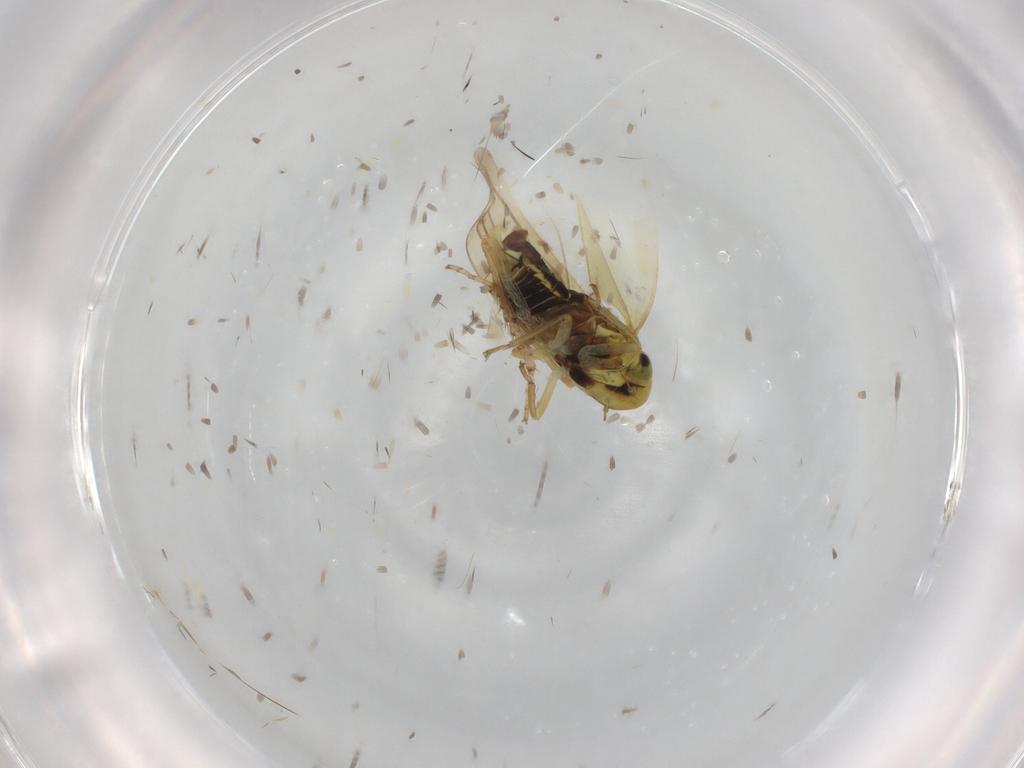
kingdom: Animalia
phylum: Arthropoda
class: Insecta
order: Hemiptera
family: Cicadellidae
